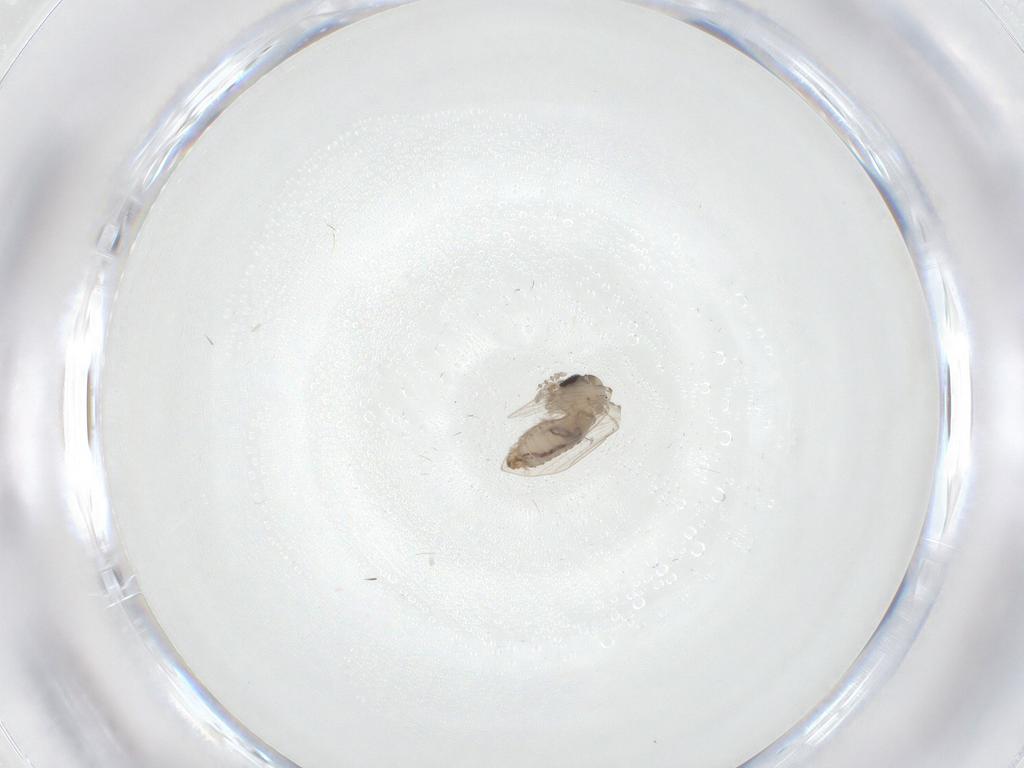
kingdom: Animalia
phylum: Arthropoda
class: Insecta
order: Diptera
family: Psychodidae
